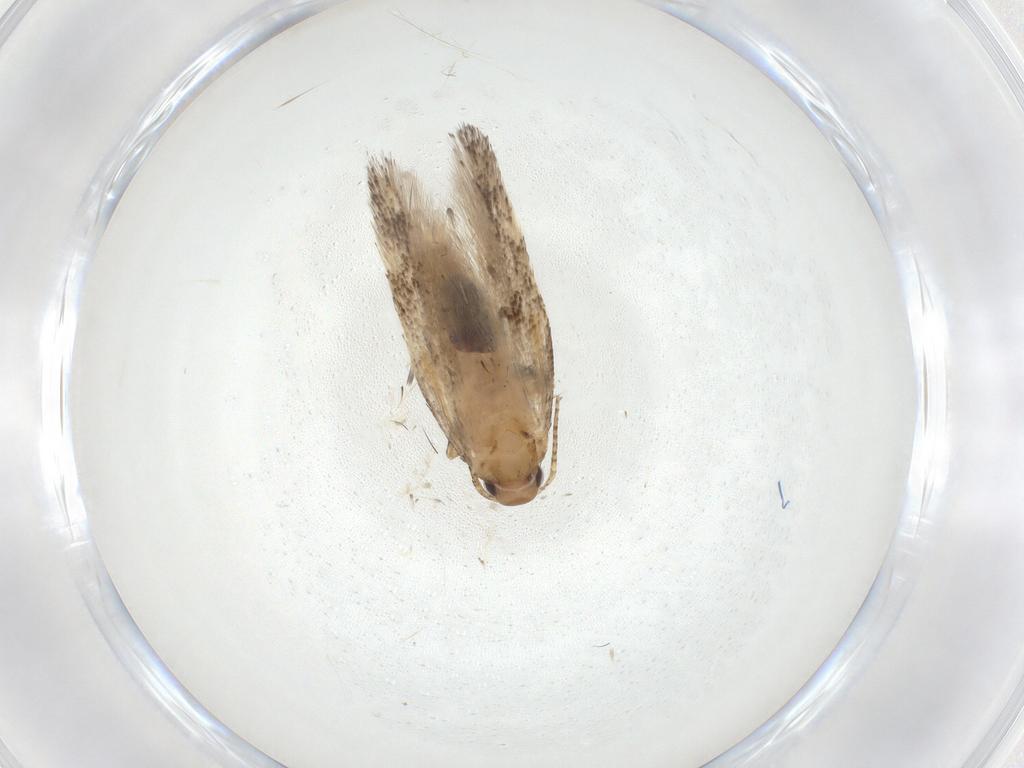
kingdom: Animalia
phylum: Arthropoda
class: Insecta
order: Lepidoptera
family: Gelechiidae
